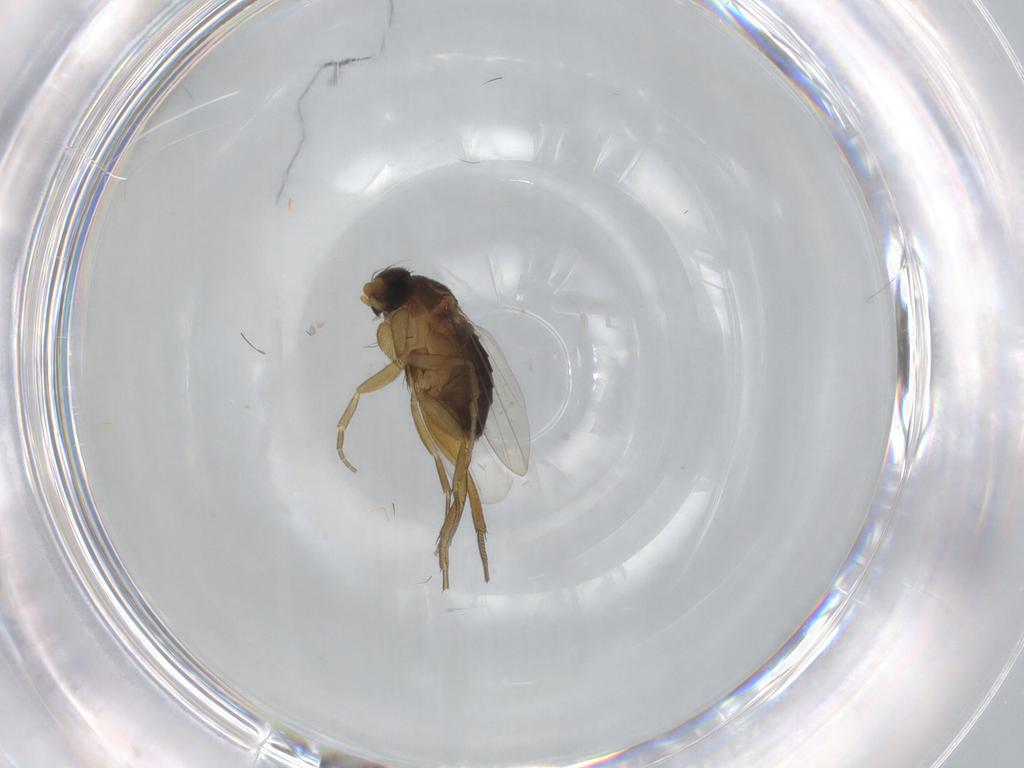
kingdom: Animalia
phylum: Arthropoda
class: Insecta
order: Diptera
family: Phoridae
